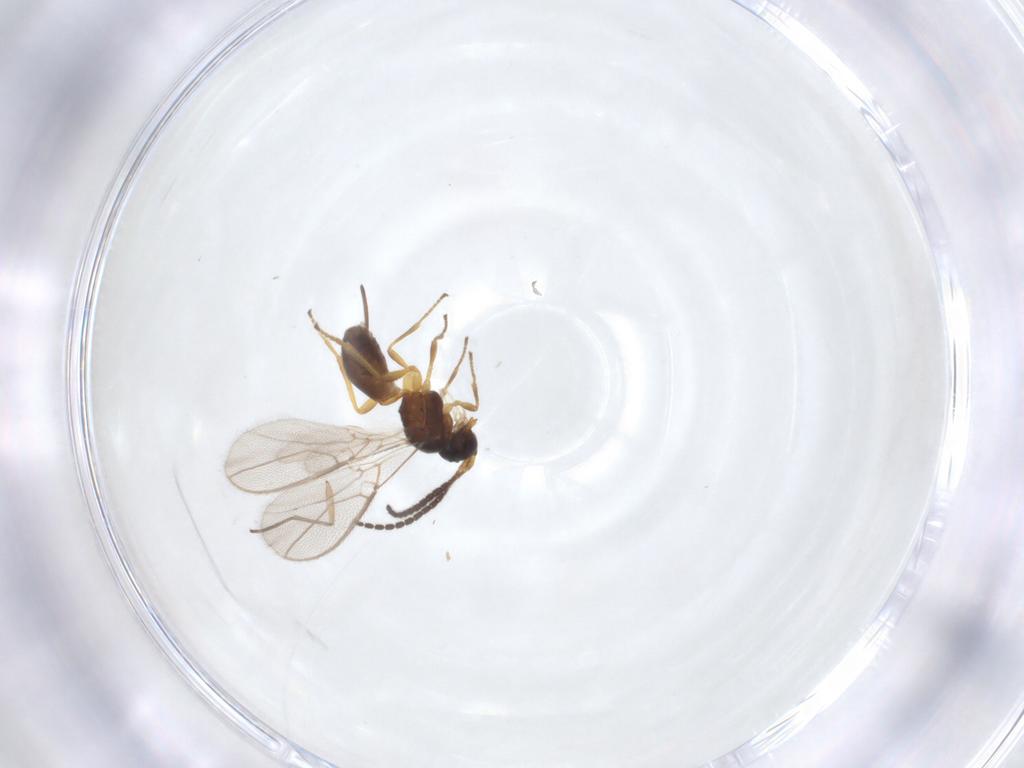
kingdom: Animalia
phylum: Arthropoda
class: Insecta
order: Hymenoptera
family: Braconidae
